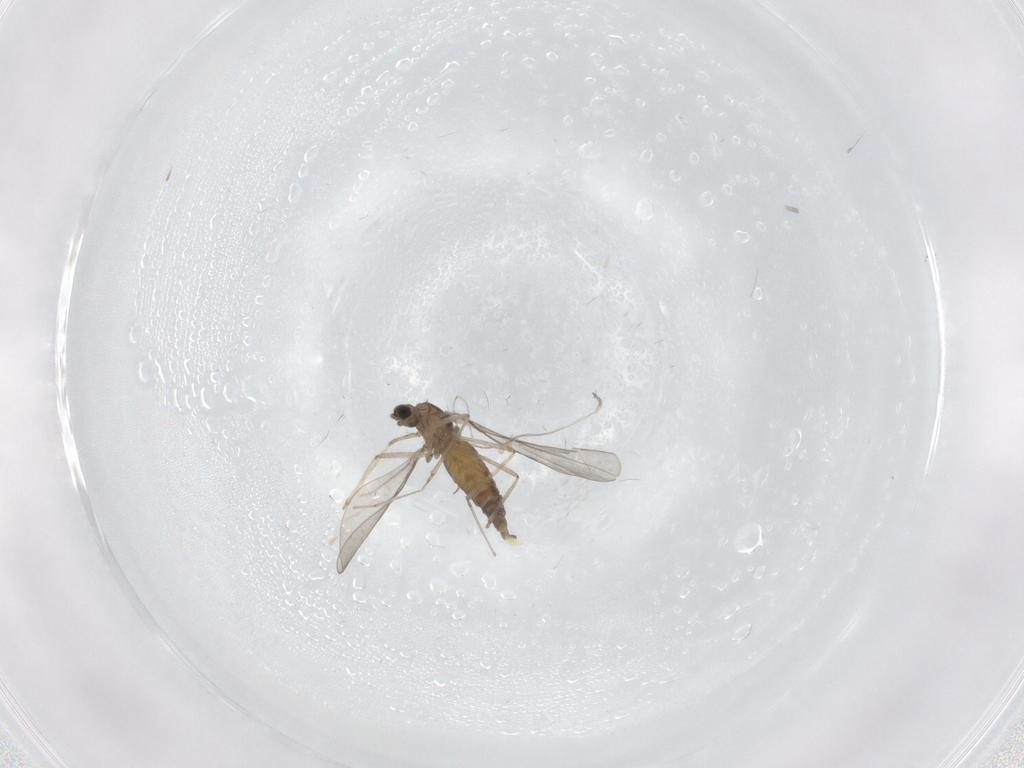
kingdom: Animalia
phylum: Arthropoda
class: Insecta
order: Diptera
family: Cecidomyiidae
